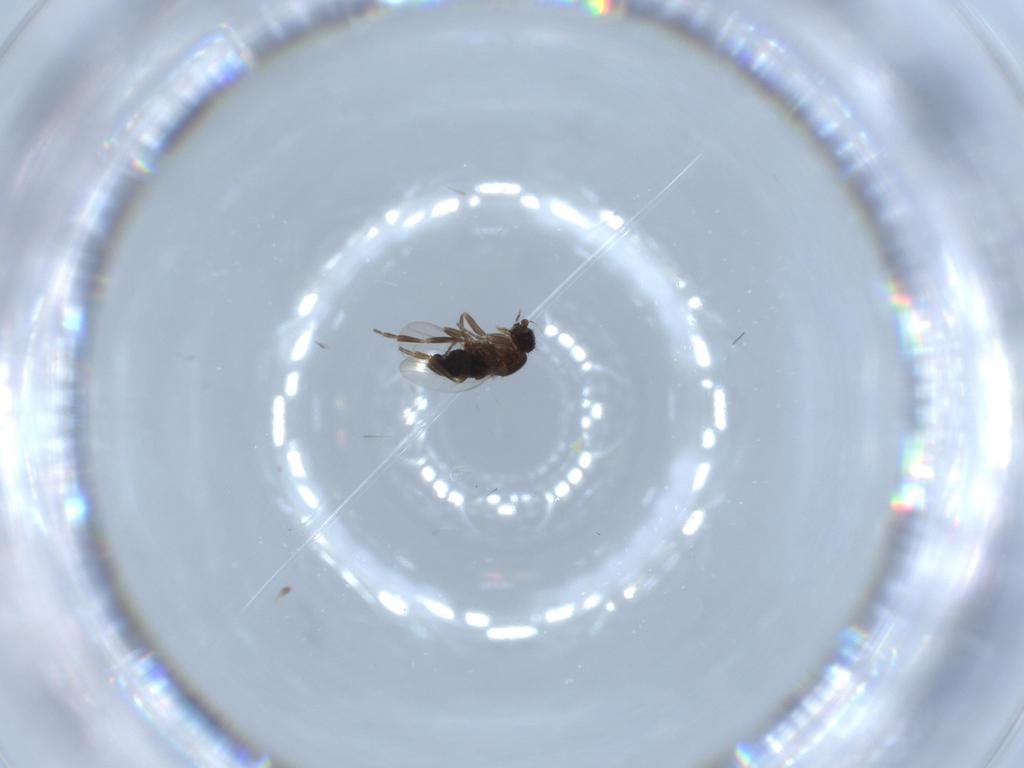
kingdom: Animalia
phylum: Arthropoda
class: Insecta
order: Diptera
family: Phoridae
